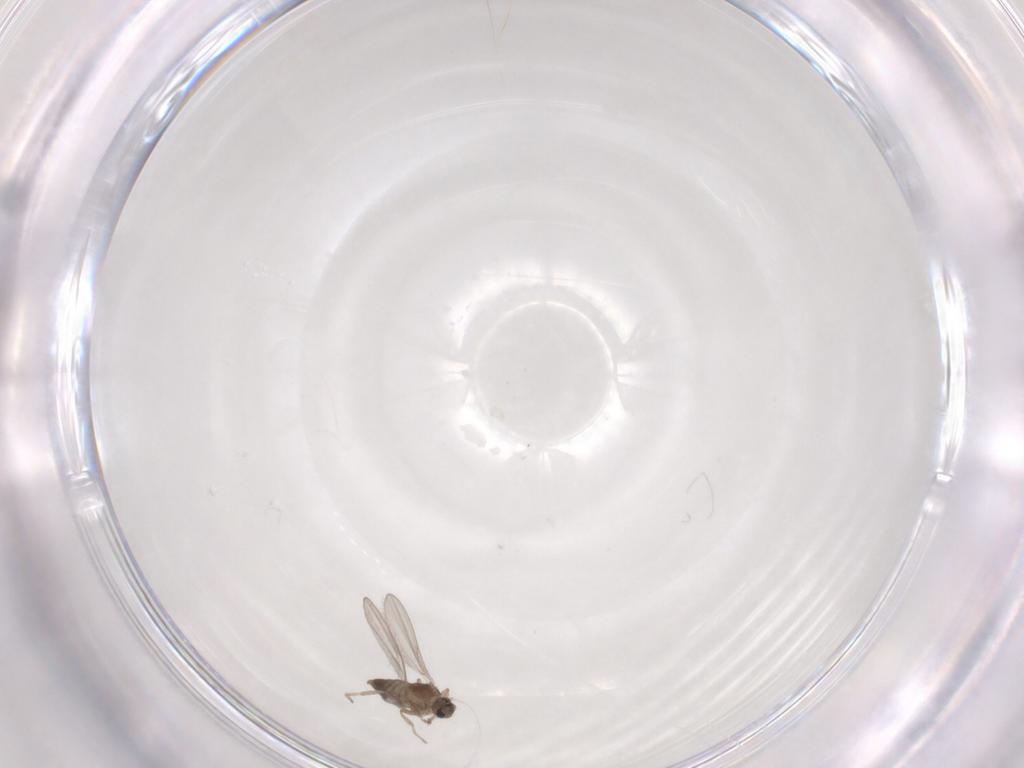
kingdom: Animalia
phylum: Arthropoda
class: Insecta
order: Diptera
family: Cecidomyiidae
